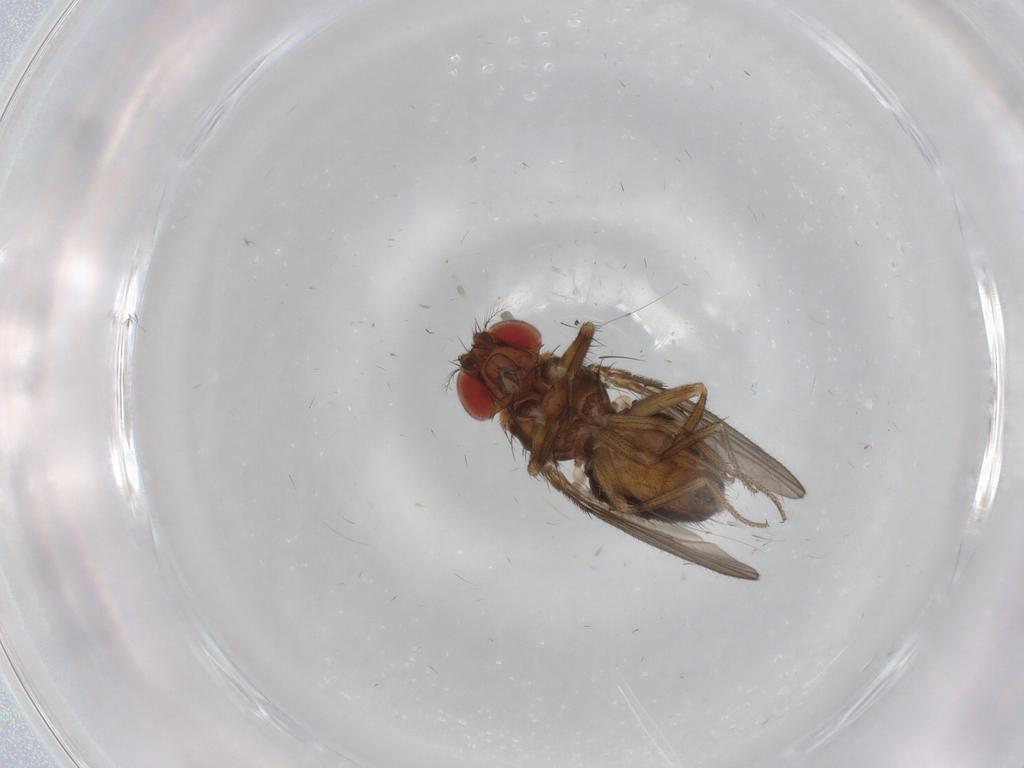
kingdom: Animalia
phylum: Arthropoda
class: Insecta
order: Diptera
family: Drosophilidae
